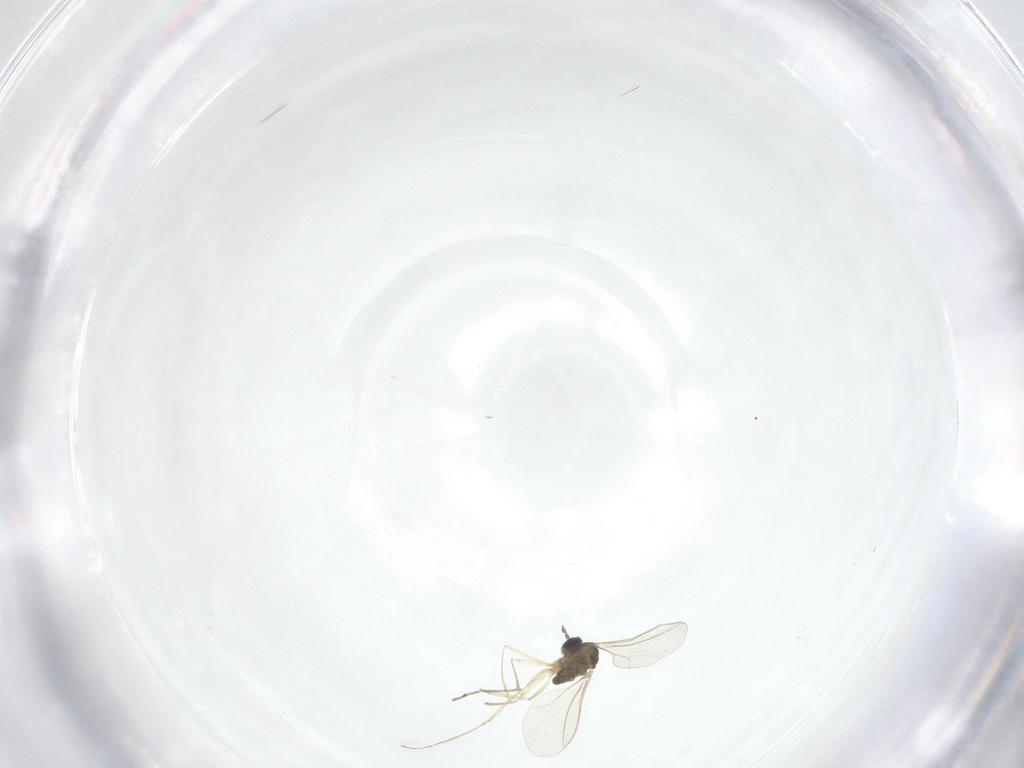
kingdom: Animalia
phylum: Arthropoda
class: Insecta
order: Diptera
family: Cecidomyiidae
